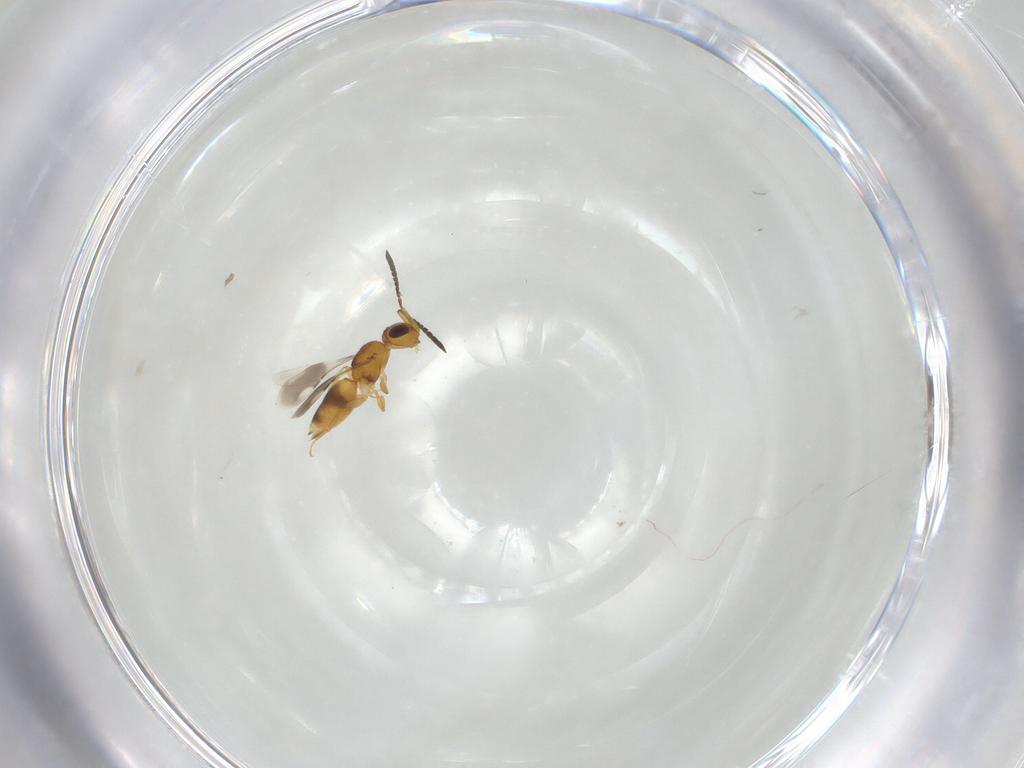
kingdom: Animalia
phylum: Arthropoda
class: Insecta
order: Hymenoptera
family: Ceraphronidae
